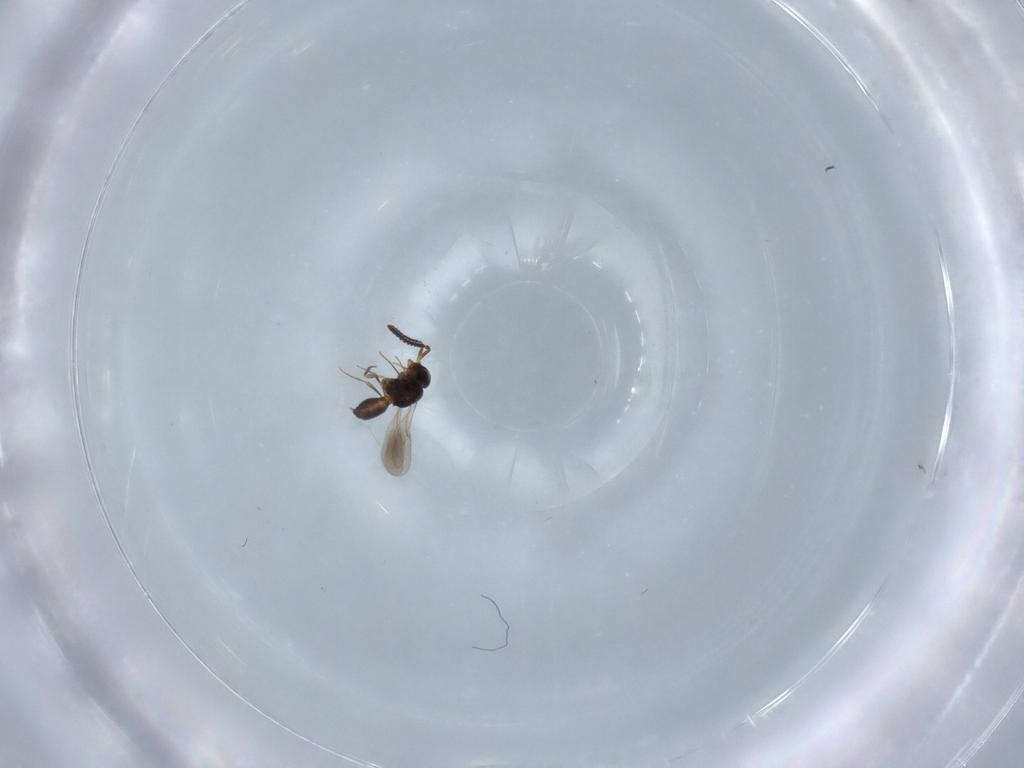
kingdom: Animalia
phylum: Arthropoda
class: Insecta
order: Hymenoptera
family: Scelionidae
